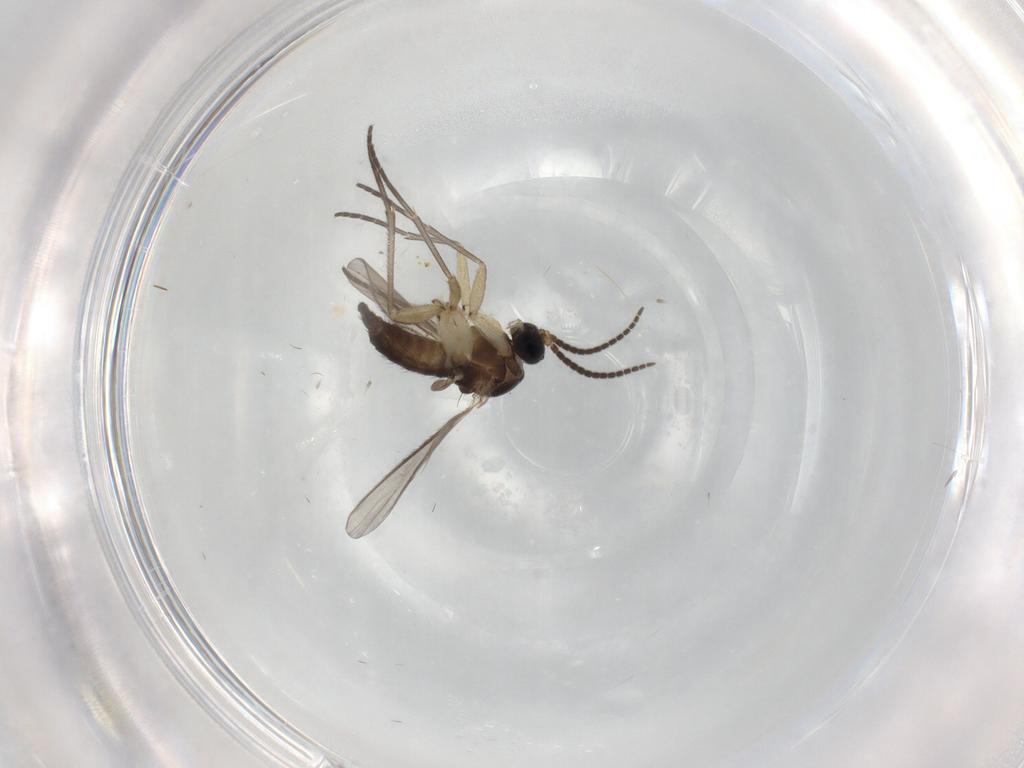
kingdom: Animalia
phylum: Arthropoda
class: Insecta
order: Diptera
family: Sciaridae
